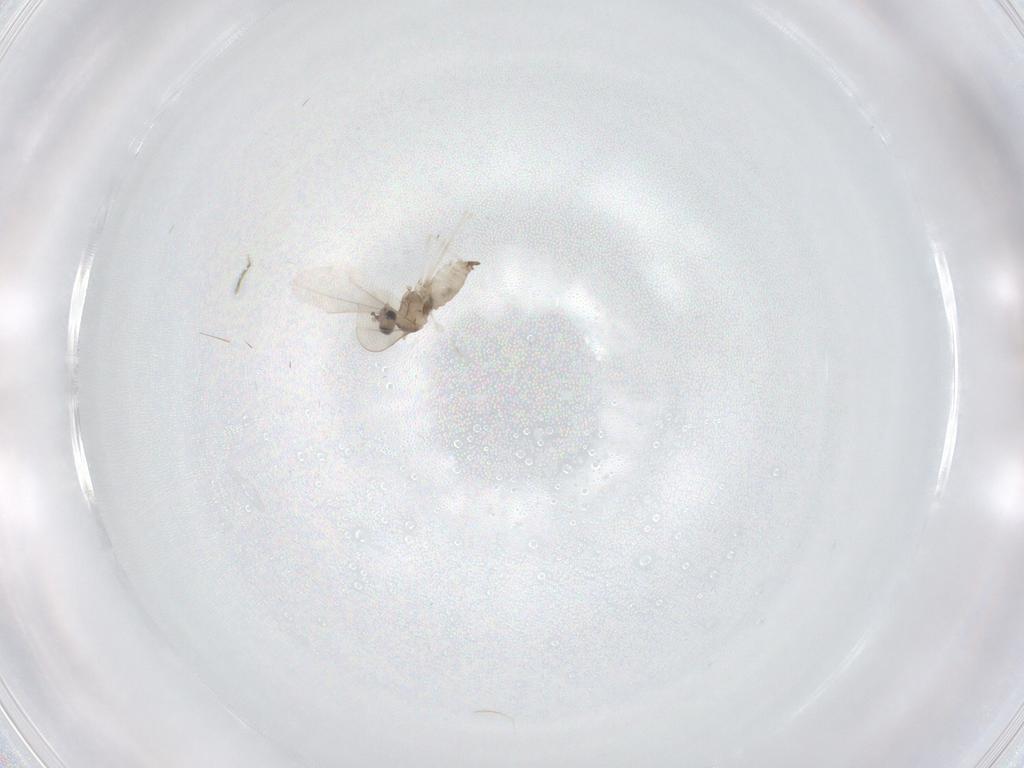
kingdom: Animalia
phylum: Arthropoda
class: Insecta
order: Diptera
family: Cecidomyiidae
